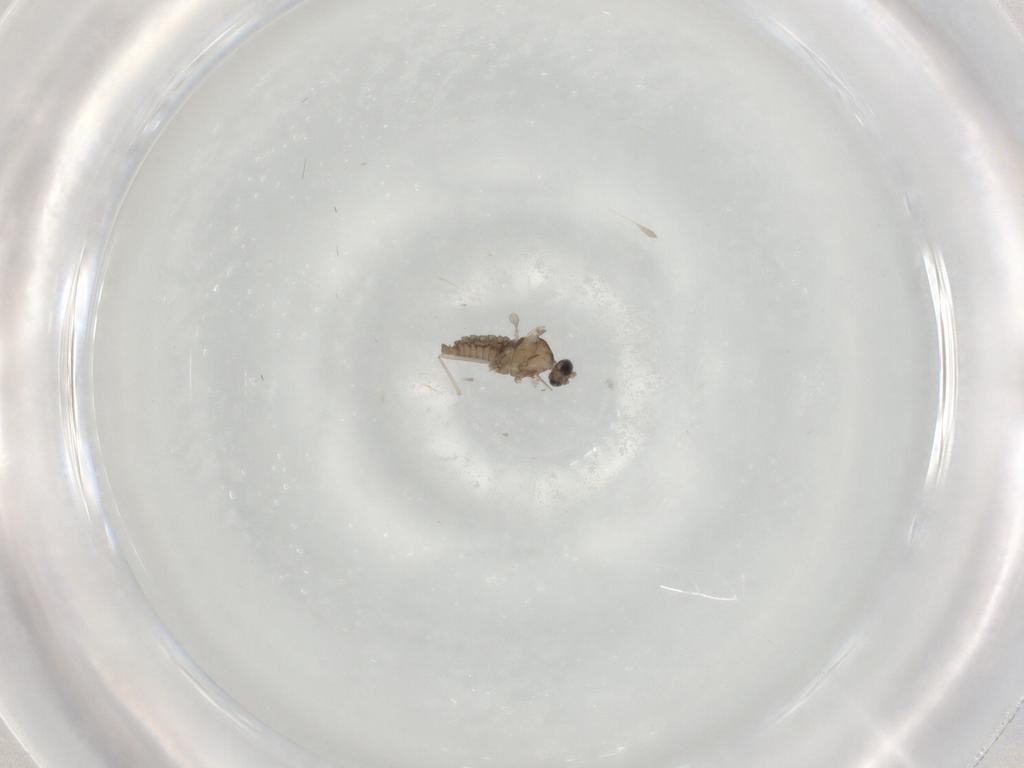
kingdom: Animalia
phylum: Arthropoda
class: Insecta
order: Diptera
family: Cecidomyiidae
